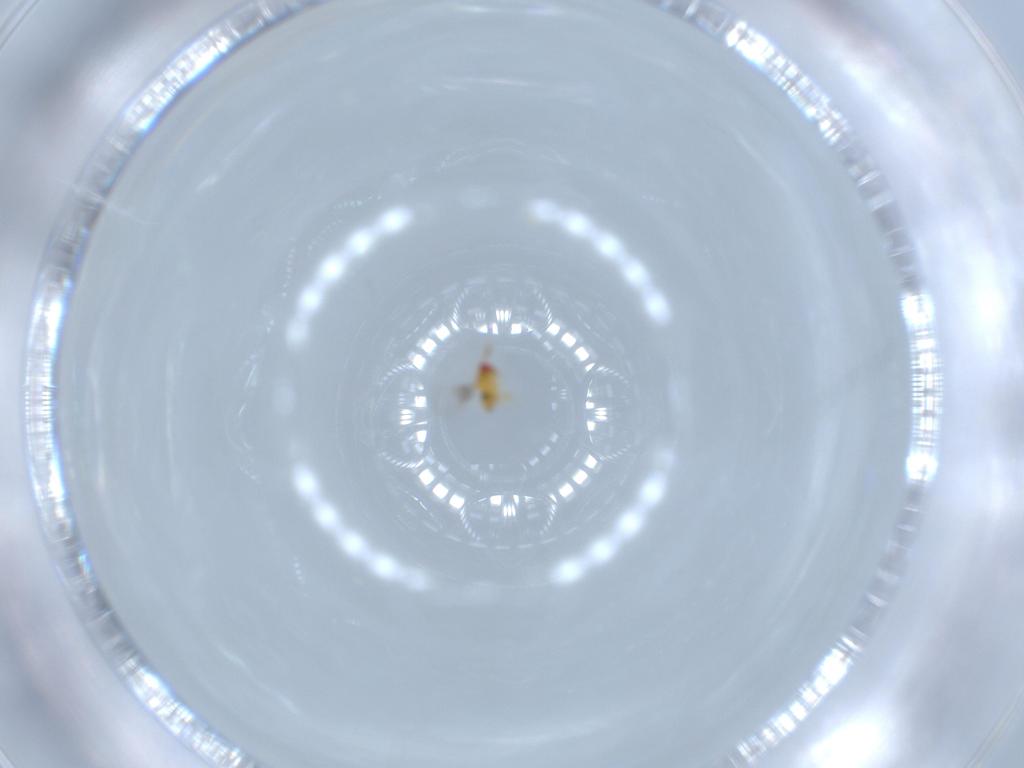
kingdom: Animalia
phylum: Arthropoda
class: Insecta
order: Hymenoptera
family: Trichogrammatidae
